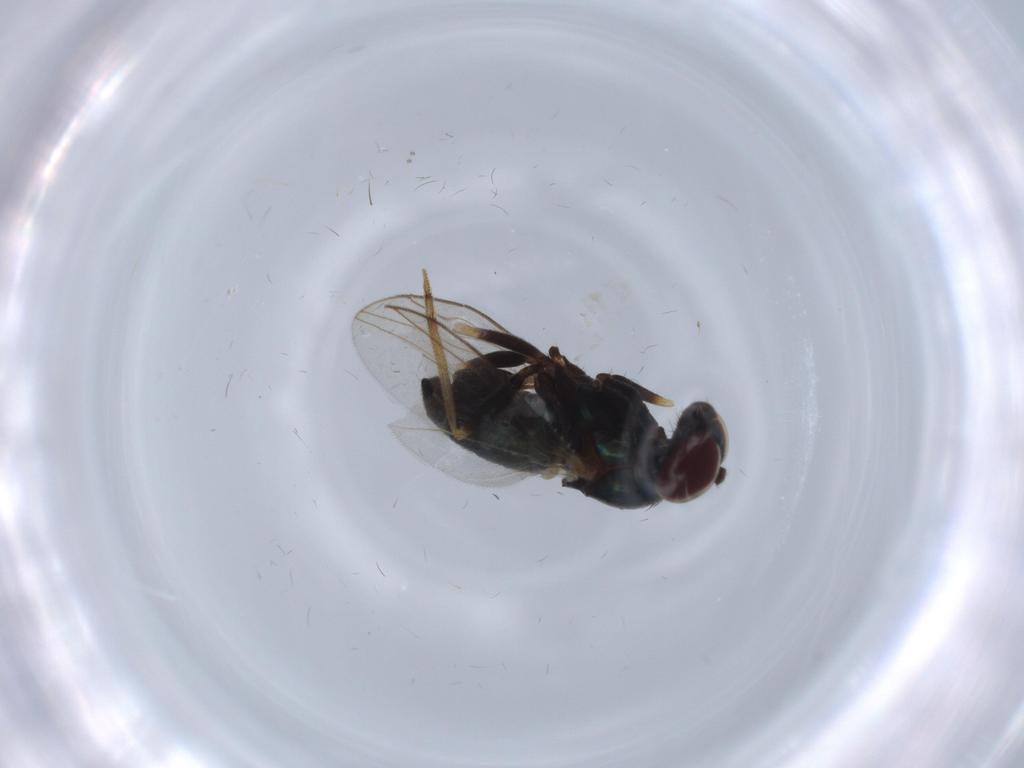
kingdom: Animalia
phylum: Arthropoda
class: Insecta
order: Diptera
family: Dolichopodidae
